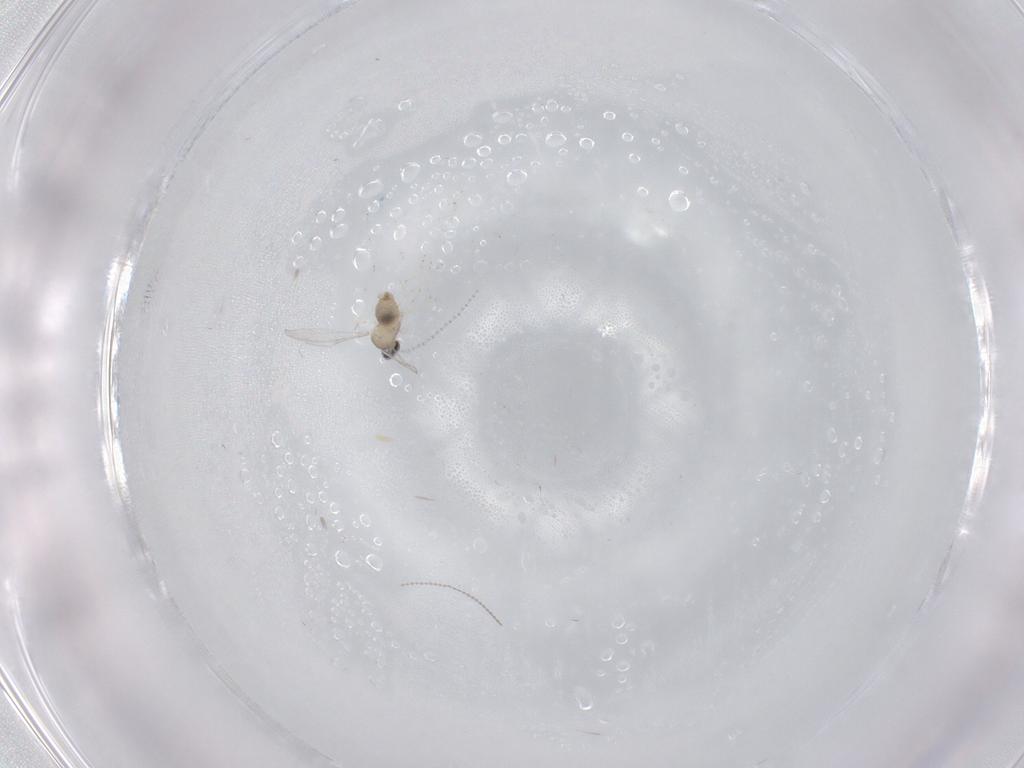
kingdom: Animalia
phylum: Arthropoda
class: Insecta
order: Diptera
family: Cecidomyiidae
